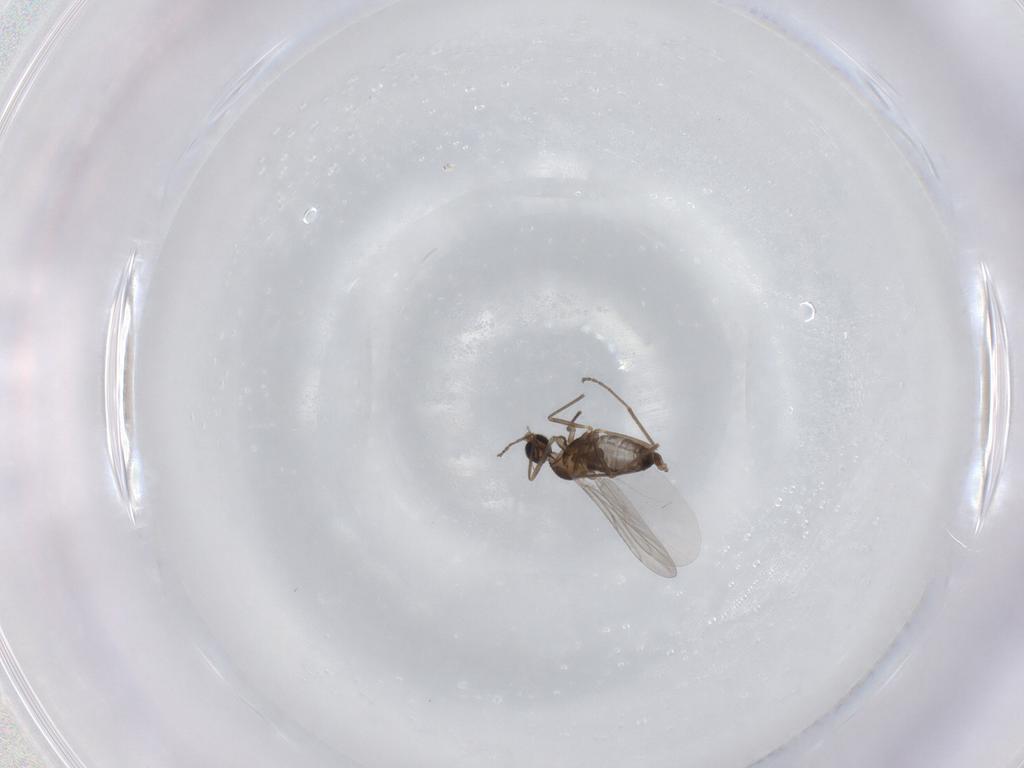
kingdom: Animalia
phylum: Arthropoda
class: Insecta
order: Diptera
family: Cecidomyiidae
